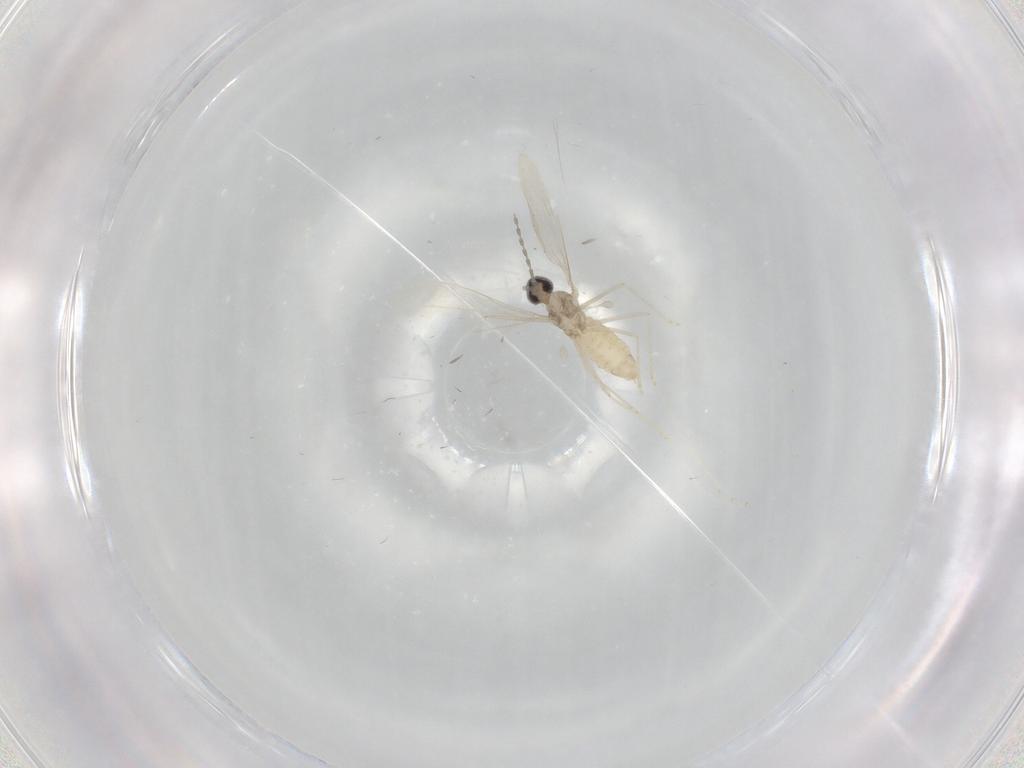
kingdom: Animalia
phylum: Arthropoda
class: Insecta
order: Diptera
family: Cecidomyiidae
